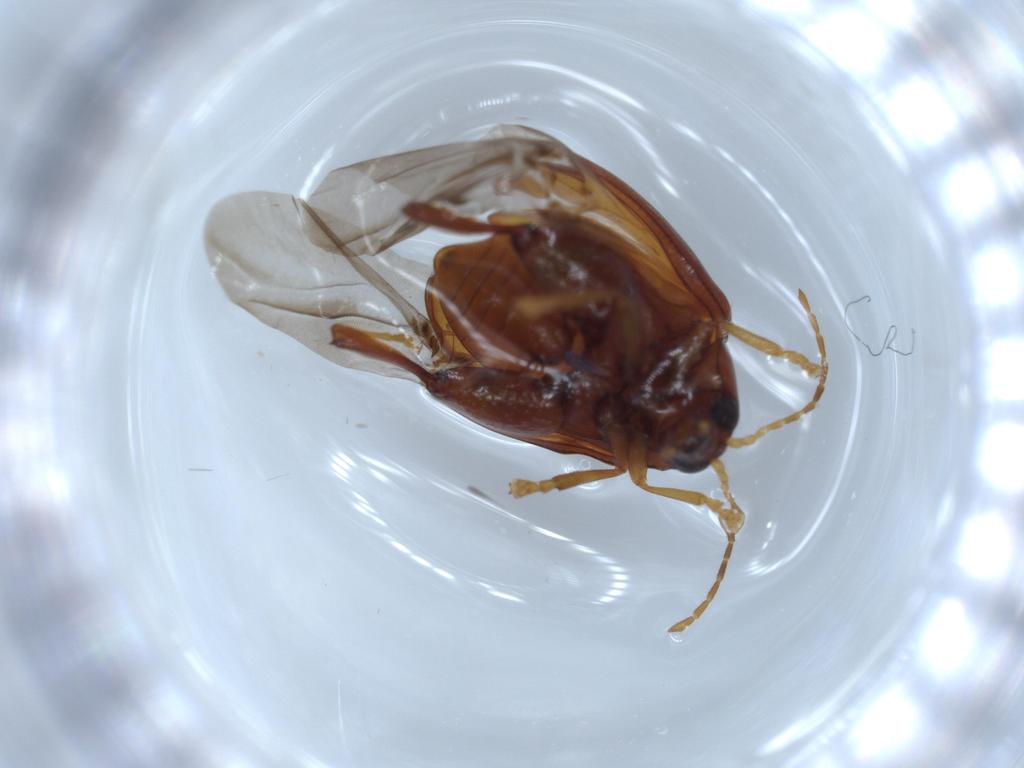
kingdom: Animalia
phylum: Arthropoda
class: Insecta
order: Coleoptera
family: Chrysomelidae
